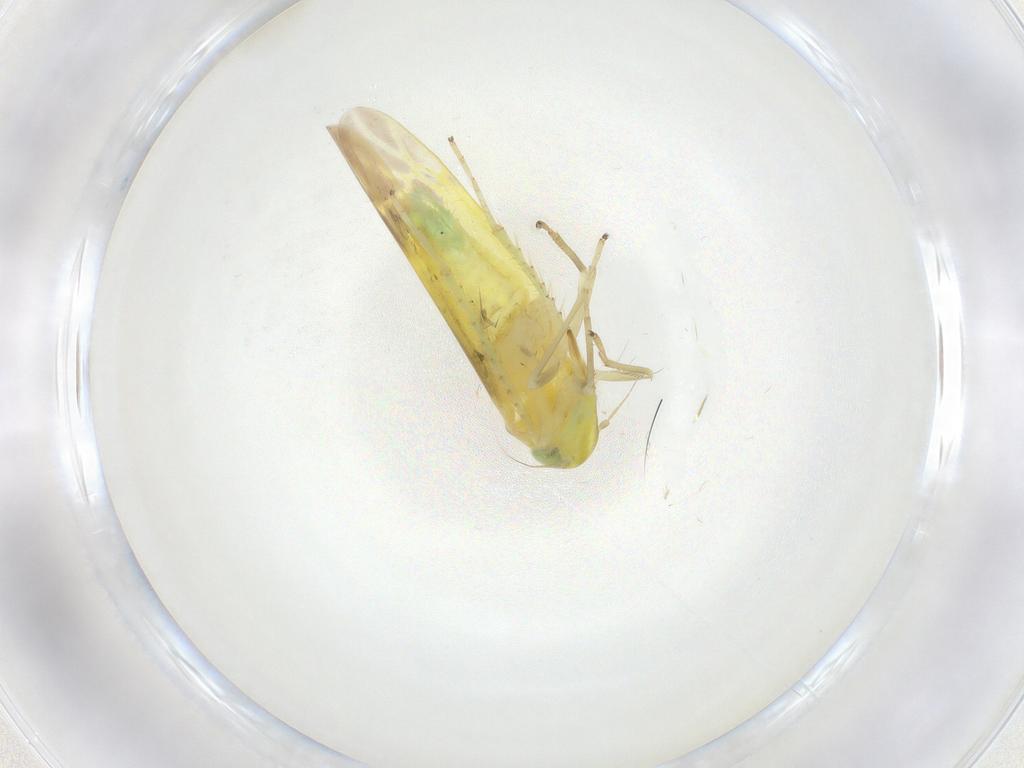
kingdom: Animalia
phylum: Arthropoda
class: Insecta
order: Hemiptera
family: Cicadellidae
